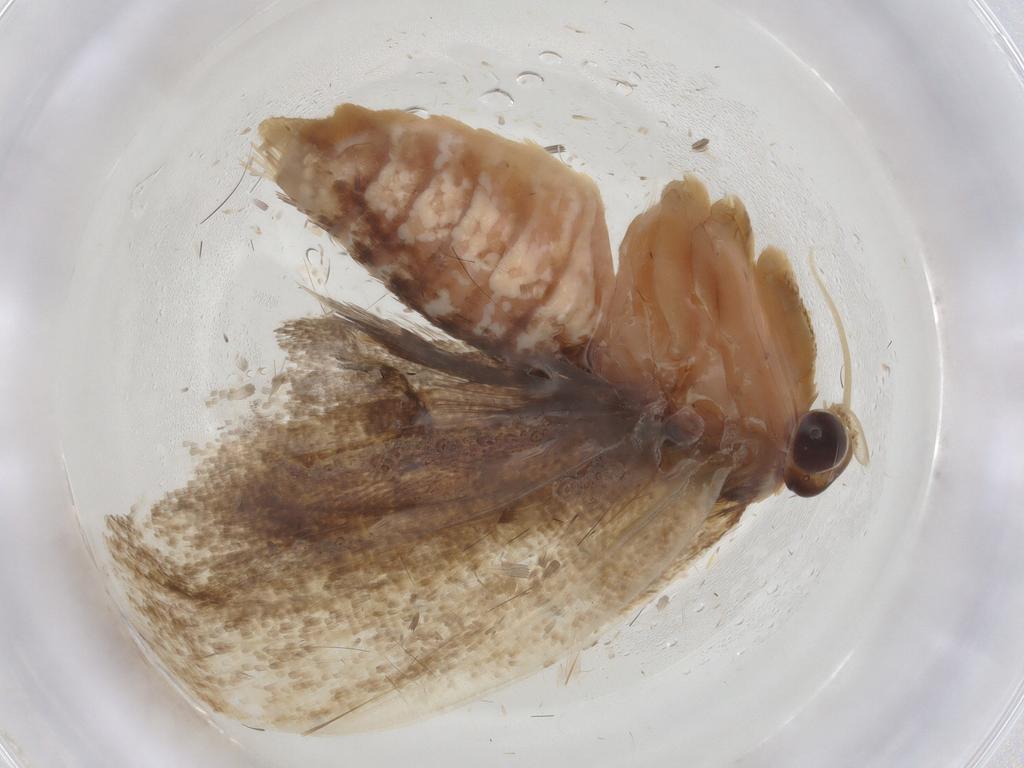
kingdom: Animalia
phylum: Arthropoda
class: Insecta
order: Lepidoptera
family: Tortricidae
